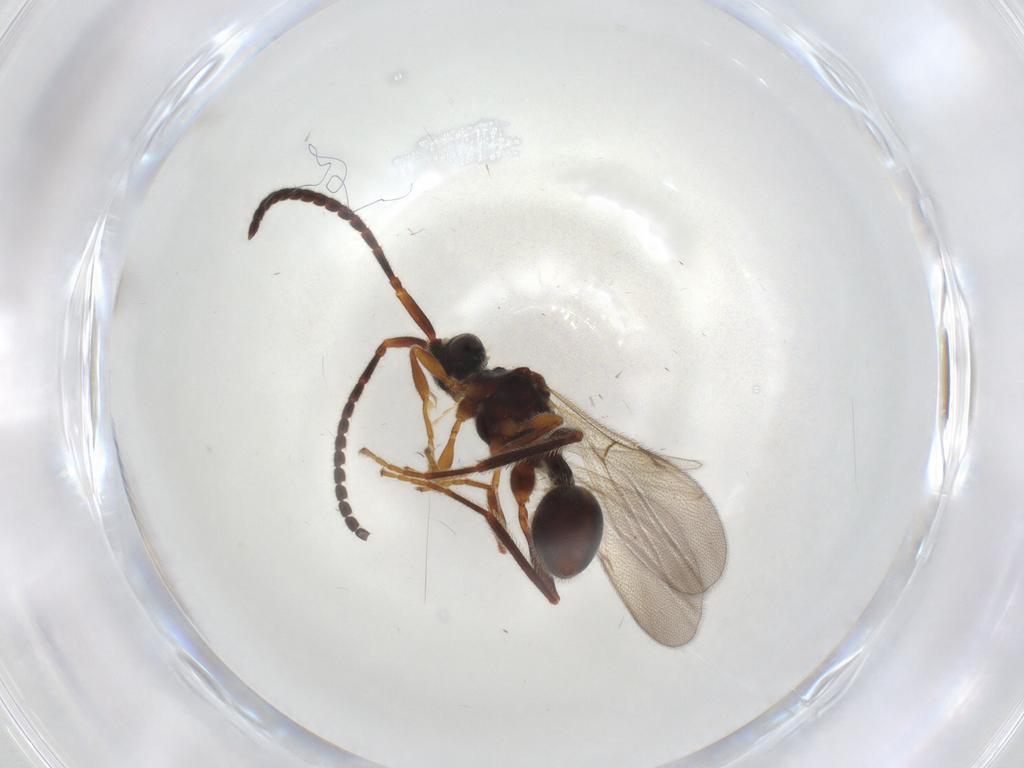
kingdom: Animalia
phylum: Arthropoda
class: Insecta
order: Hymenoptera
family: Diapriidae
